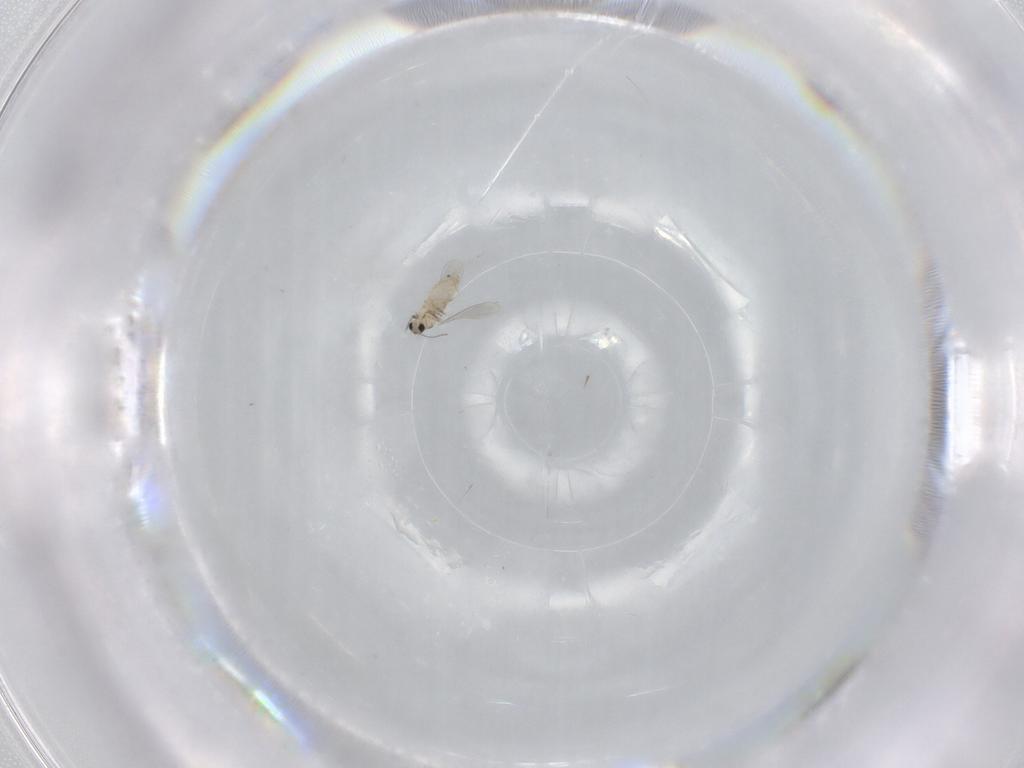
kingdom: Animalia
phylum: Arthropoda
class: Insecta
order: Diptera
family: Cecidomyiidae
